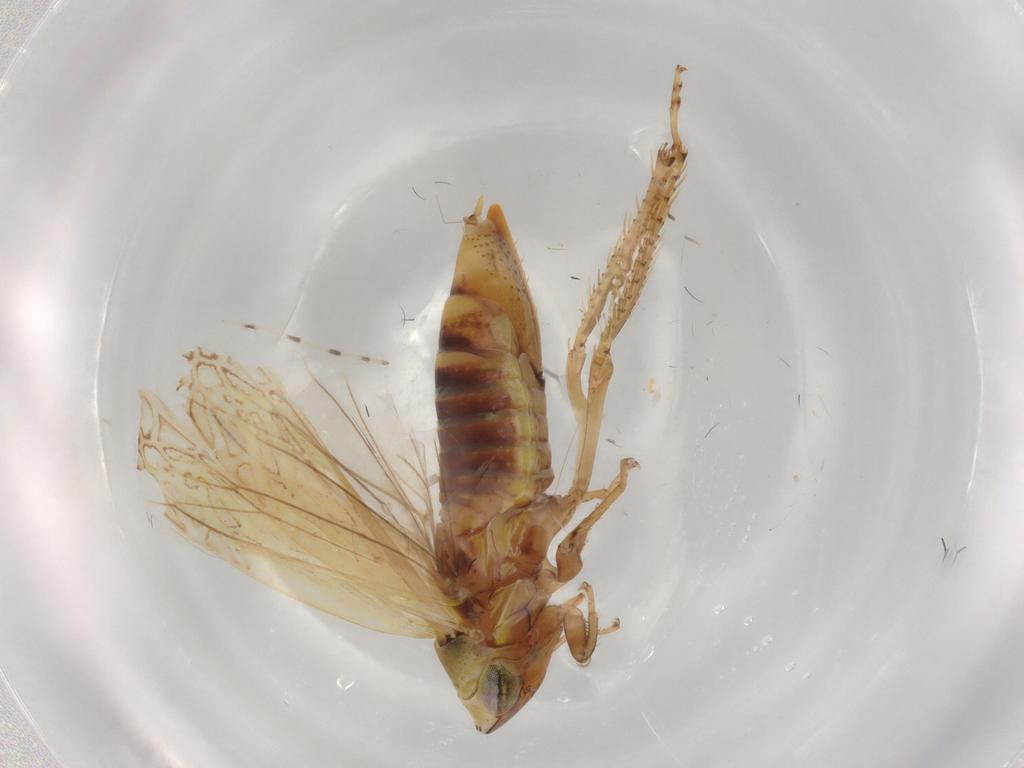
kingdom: Animalia
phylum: Arthropoda
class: Insecta
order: Hemiptera
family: Cicadellidae
